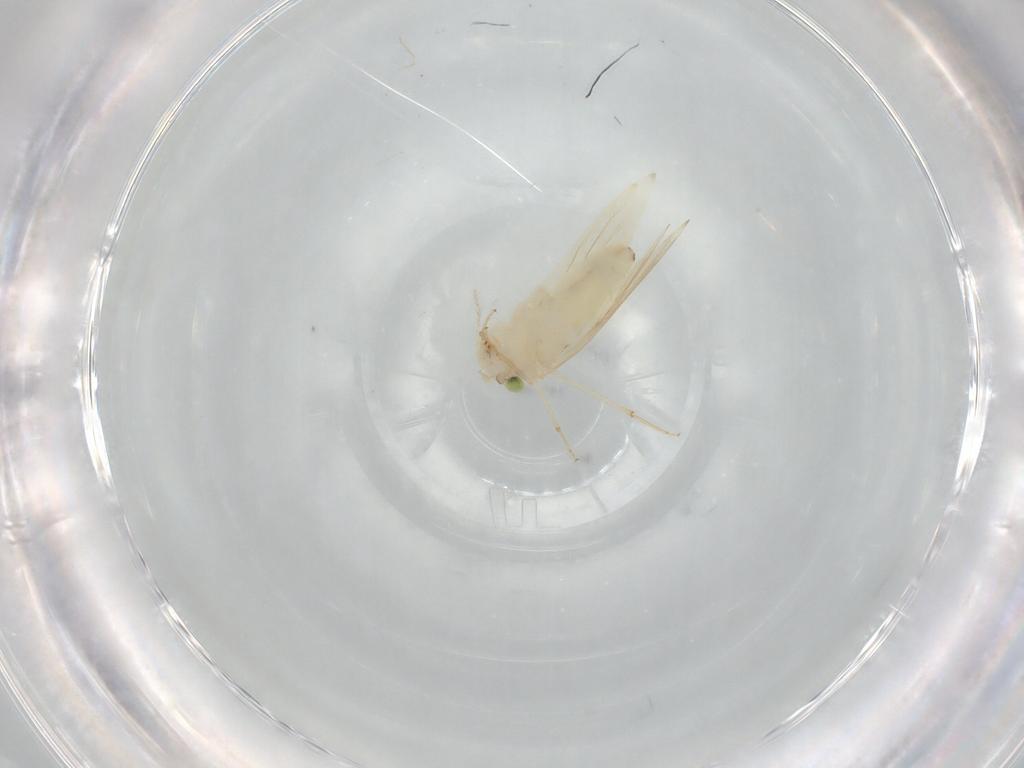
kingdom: Animalia
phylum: Arthropoda
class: Insecta
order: Psocodea
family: Lepidopsocidae
